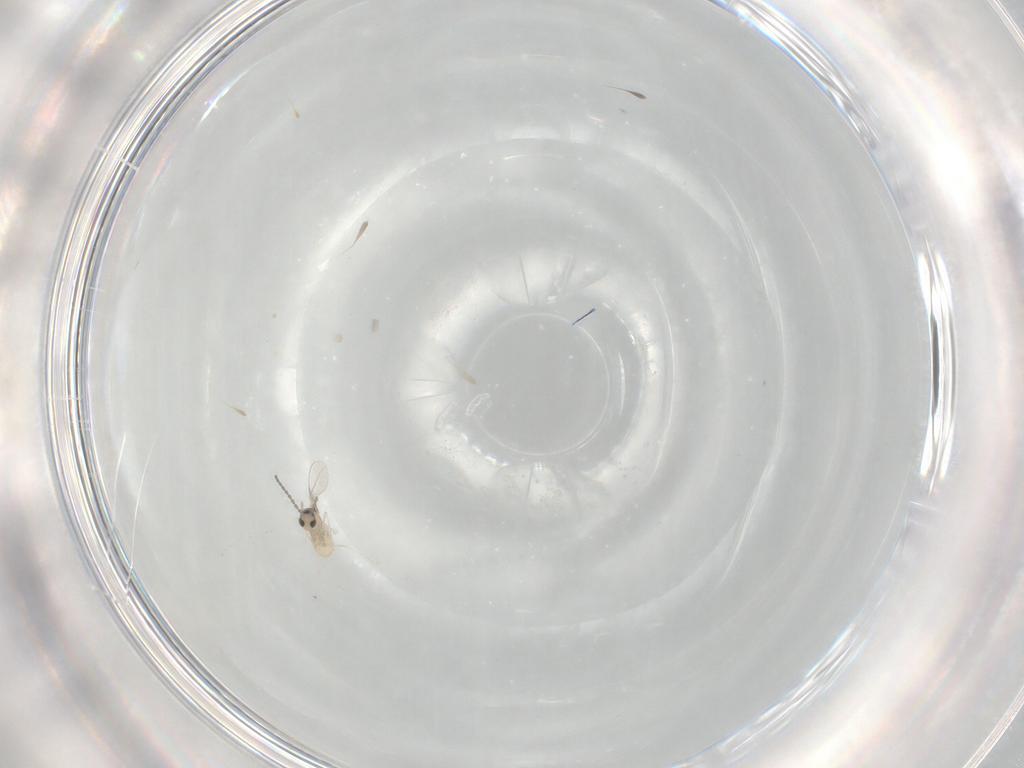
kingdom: Animalia
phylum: Arthropoda
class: Insecta
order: Diptera
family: Cecidomyiidae
